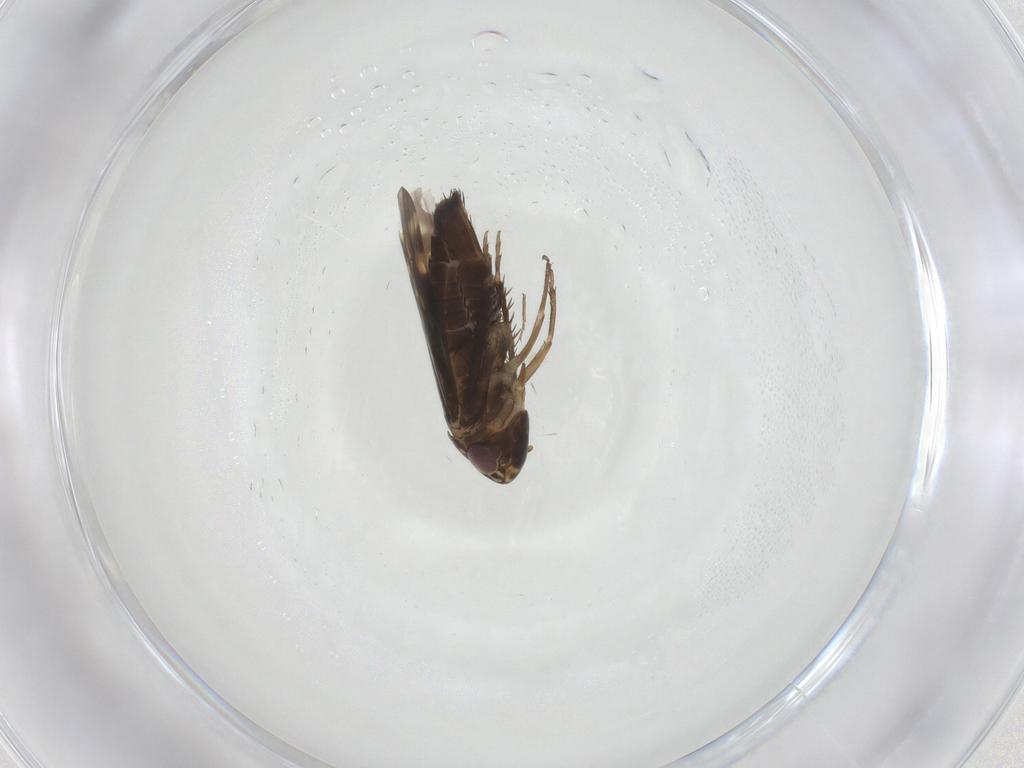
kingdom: Animalia
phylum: Arthropoda
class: Insecta
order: Hemiptera
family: Cicadellidae
